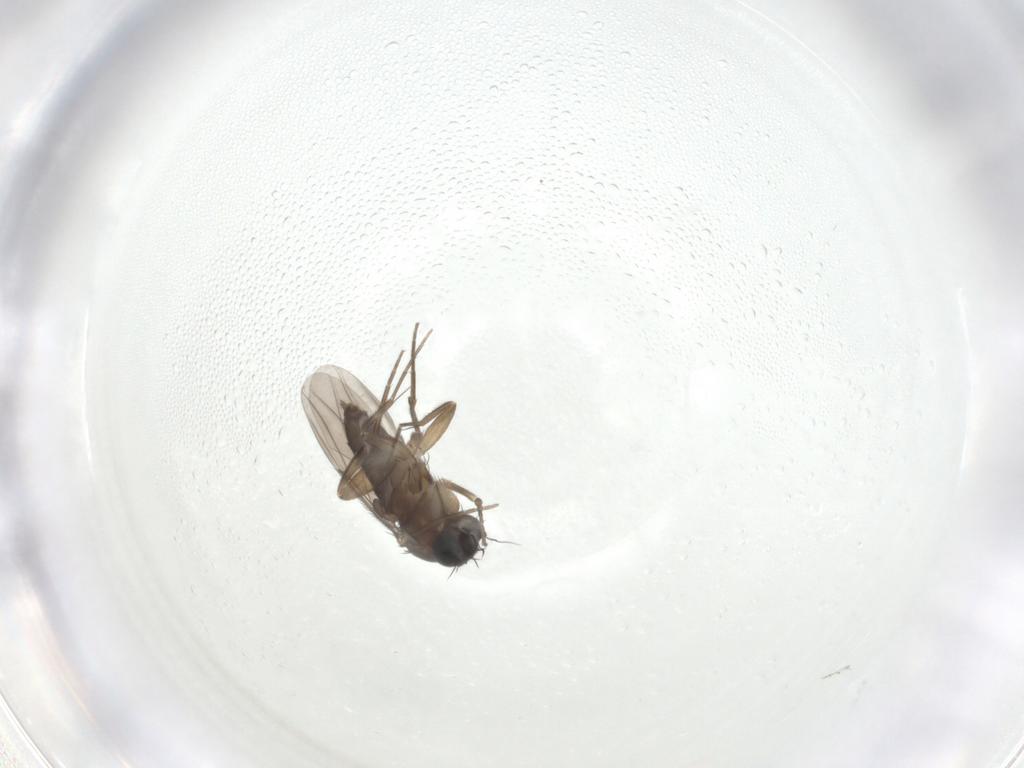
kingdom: Animalia
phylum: Arthropoda
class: Insecta
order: Diptera
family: Phoridae
